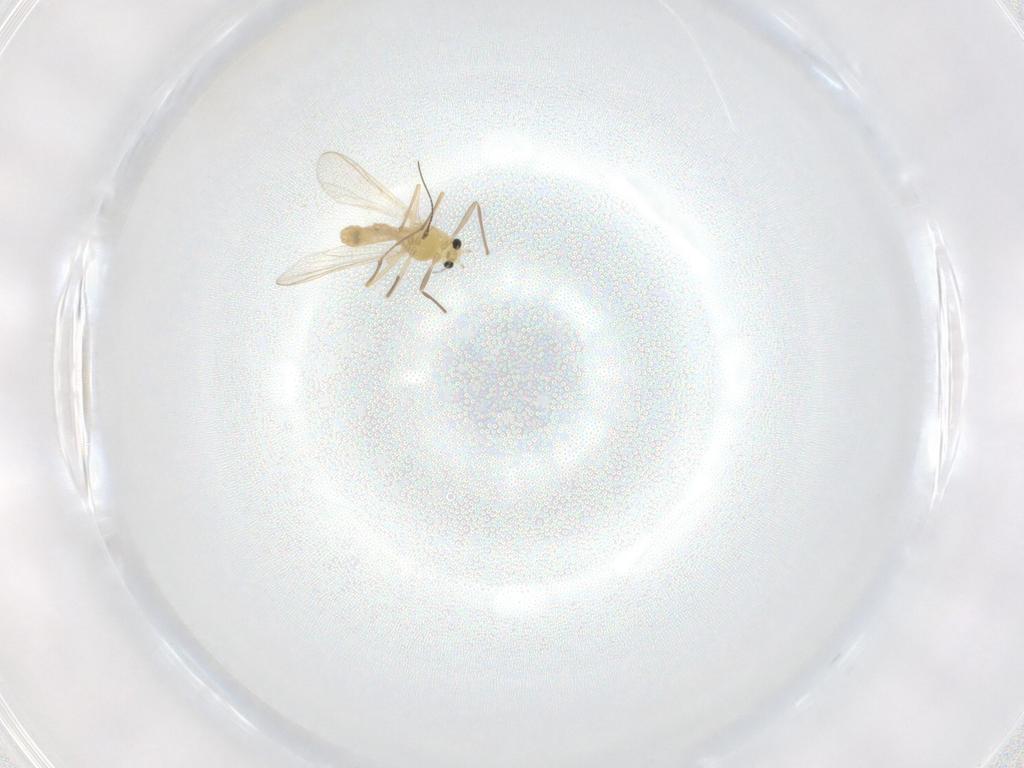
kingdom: Animalia
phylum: Arthropoda
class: Insecta
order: Diptera
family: Chironomidae
